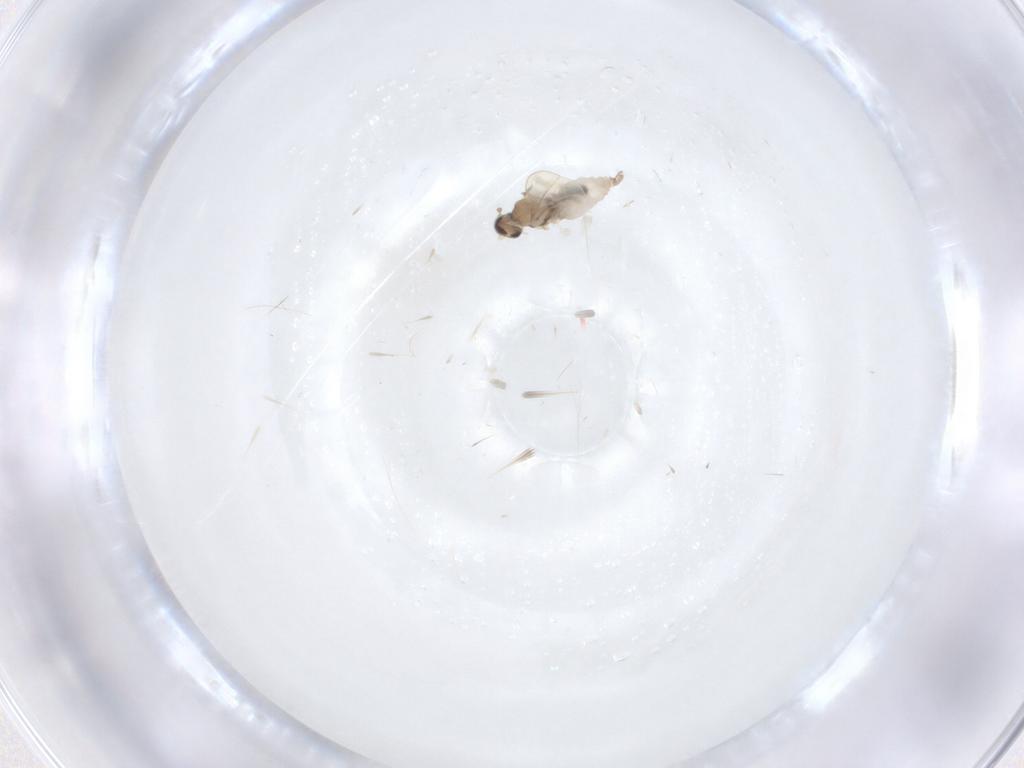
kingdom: Animalia
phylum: Arthropoda
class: Insecta
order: Diptera
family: Cecidomyiidae
